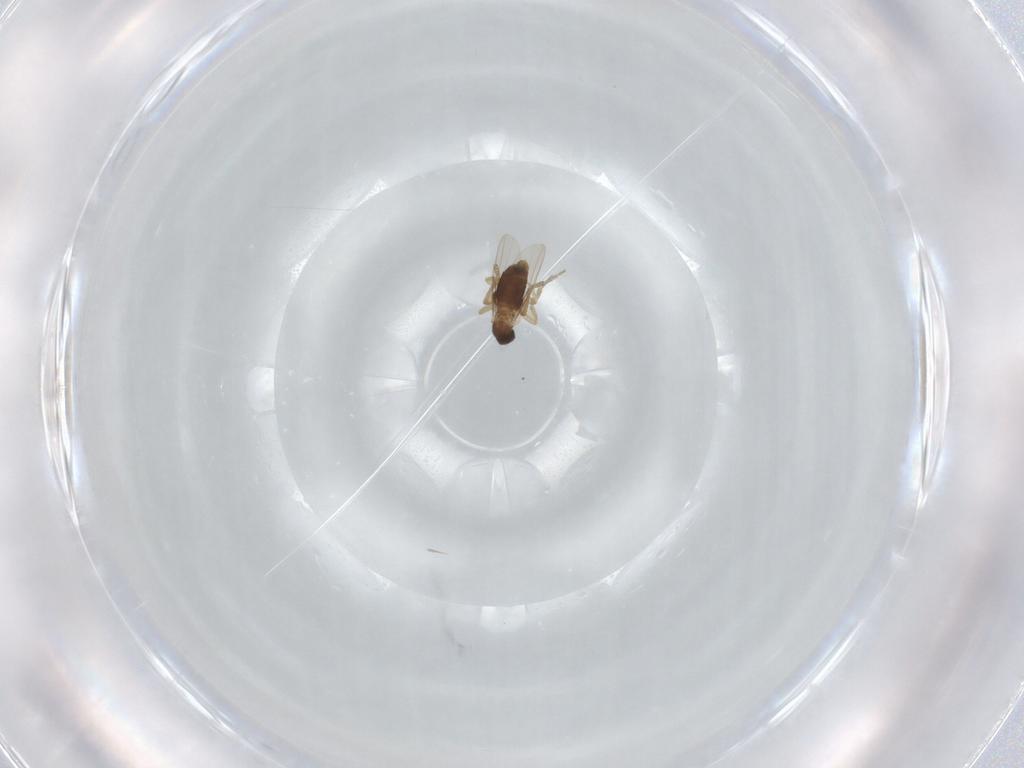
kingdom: Animalia
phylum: Arthropoda
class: Insecta
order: Diptera
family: Phoridae
